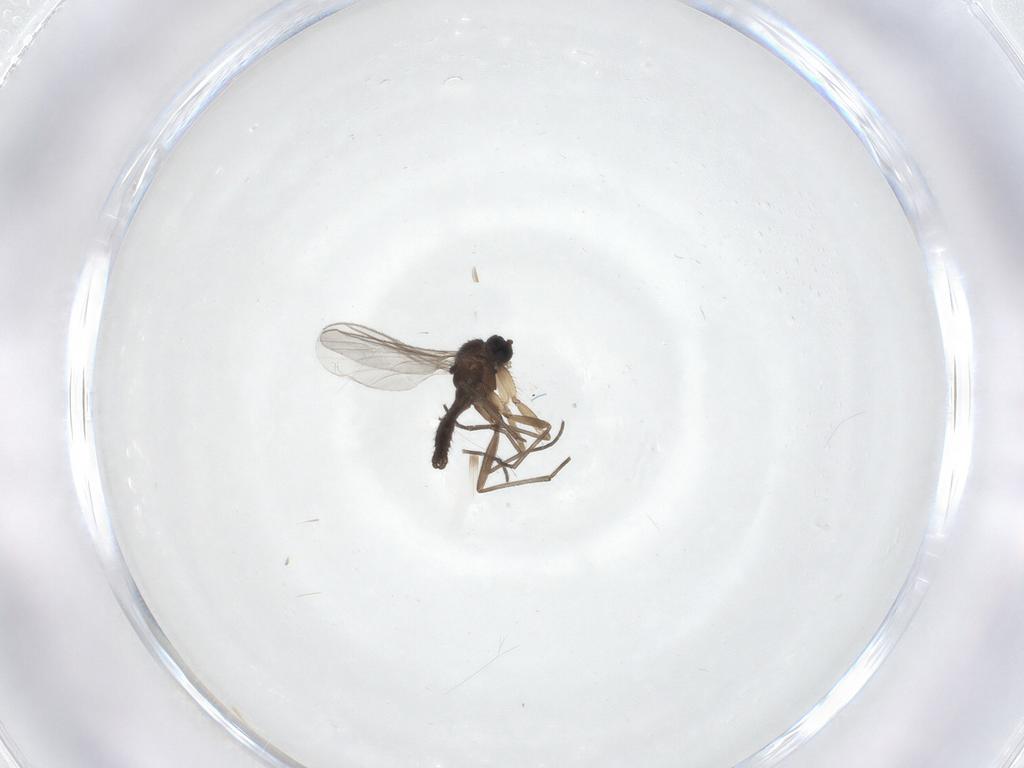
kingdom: Animalia
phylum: Arthropoda
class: Insecta
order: Diptera
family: Sciaridae
